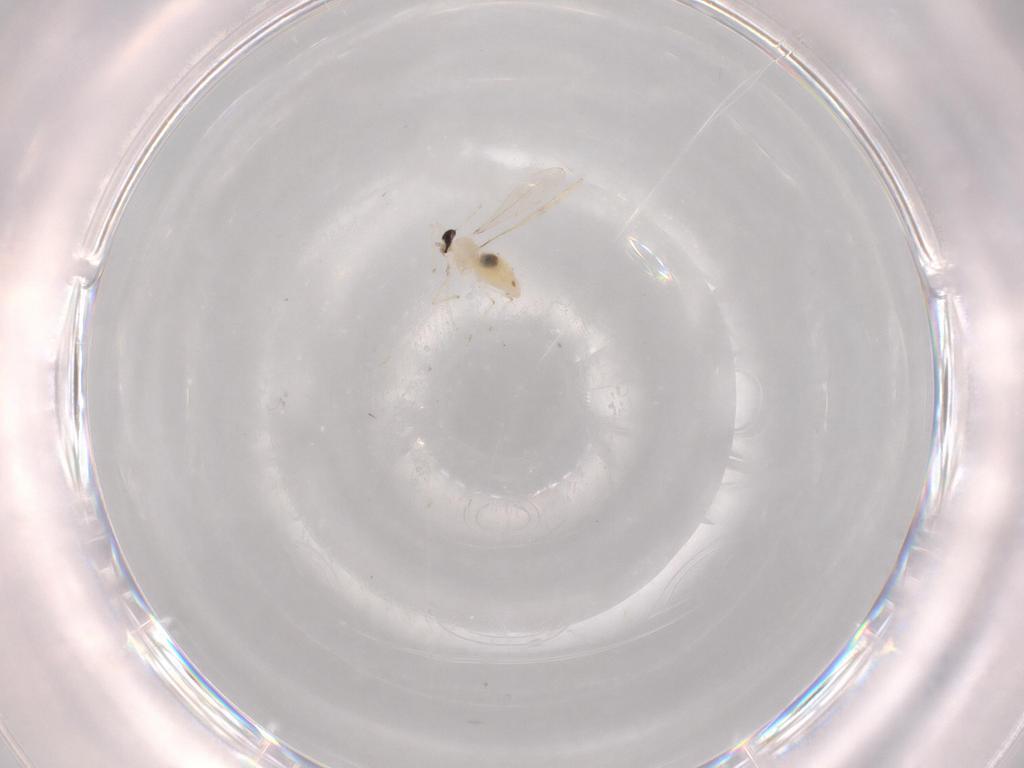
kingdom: Animalia
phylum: Arthropoda
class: Insecta
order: Diptera
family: Cecidomyiidae
